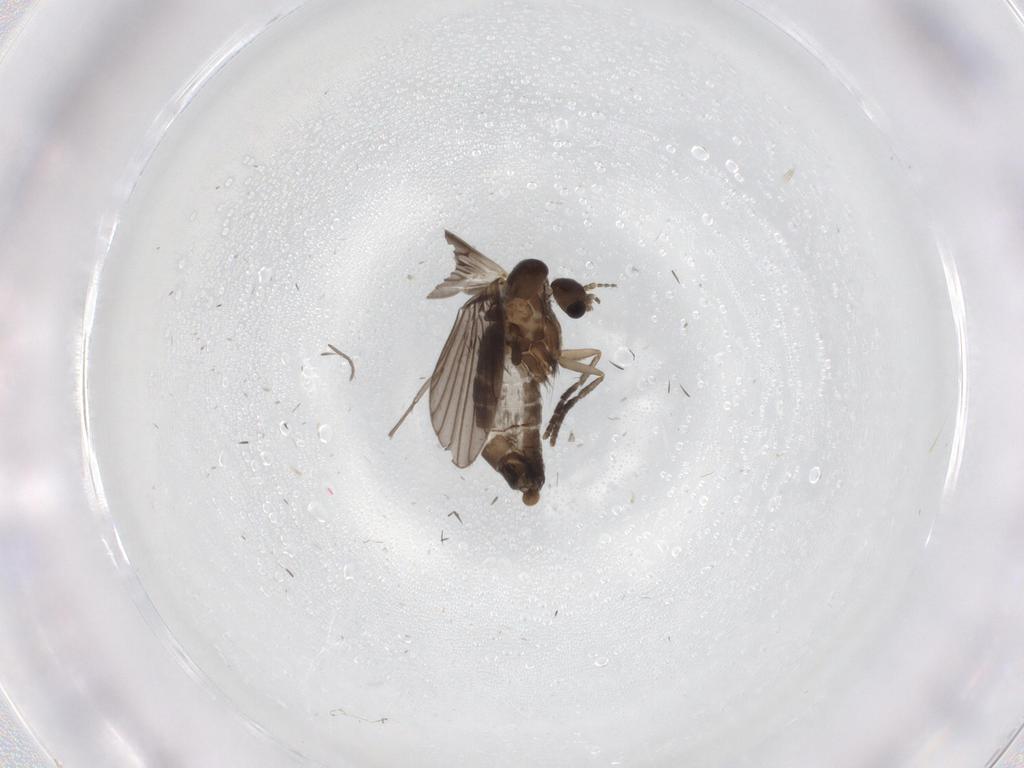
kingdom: Animalia
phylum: Arthropoda
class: Insecta
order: Diptera
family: Sciaridae
